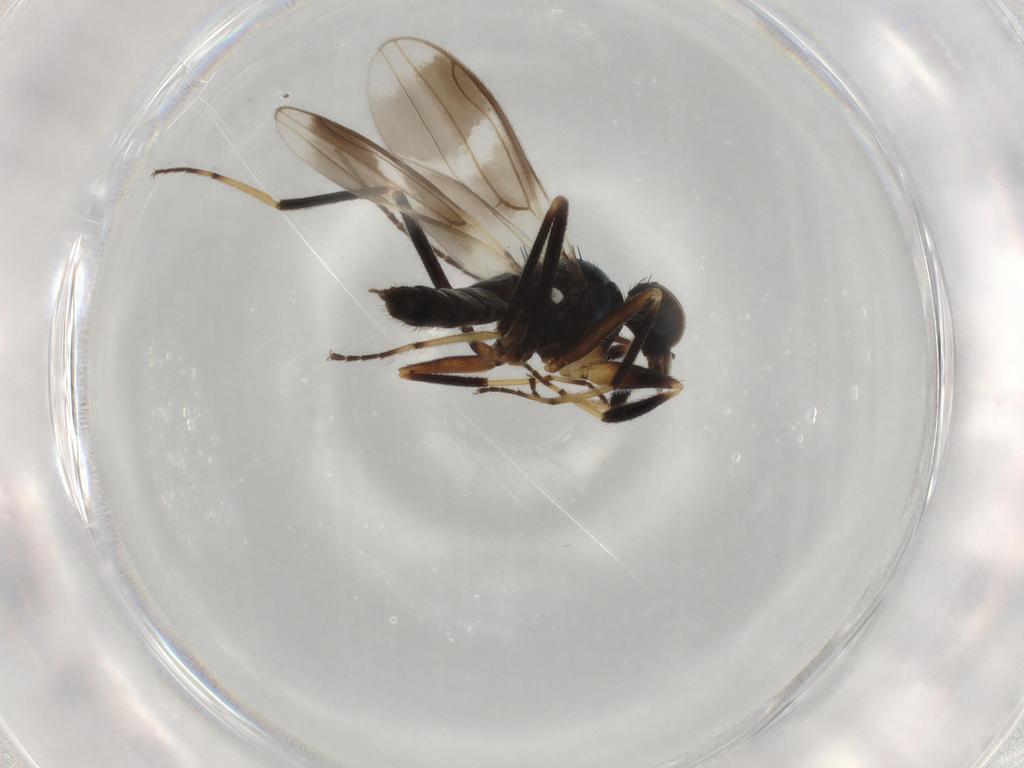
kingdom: Animalia
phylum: Arthropoda
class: Insecta
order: Diptera
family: Hybotidae
